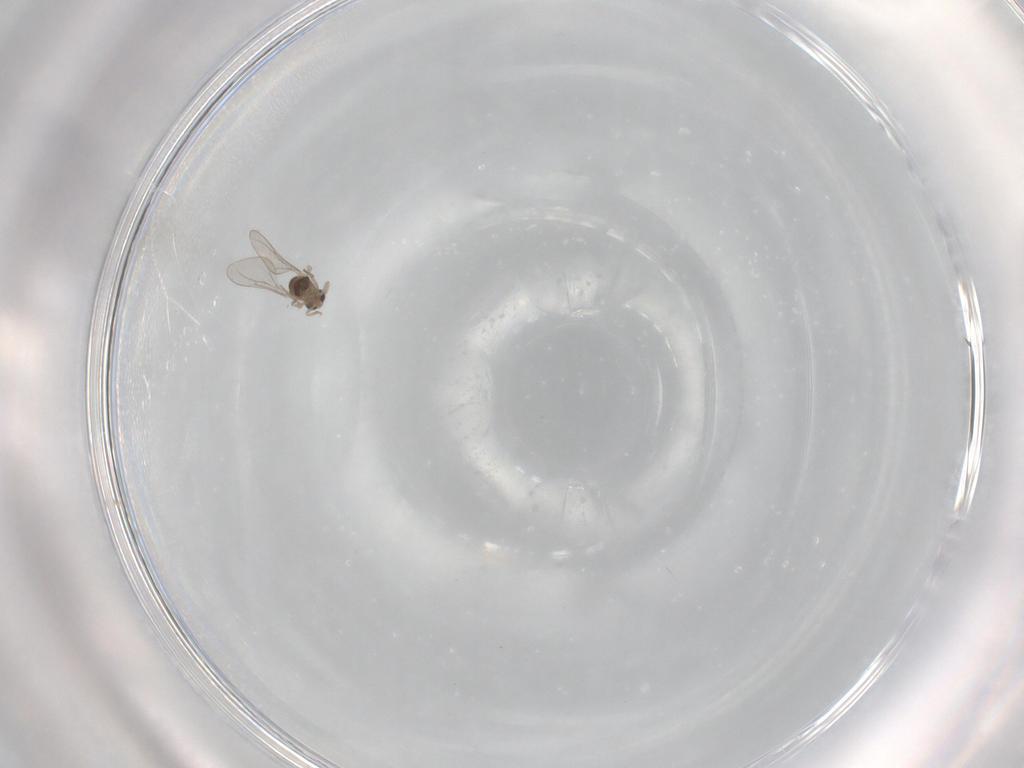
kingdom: Animalia
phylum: Arthropoda
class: Insecta
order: Diptera
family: Cecidomyiidae
